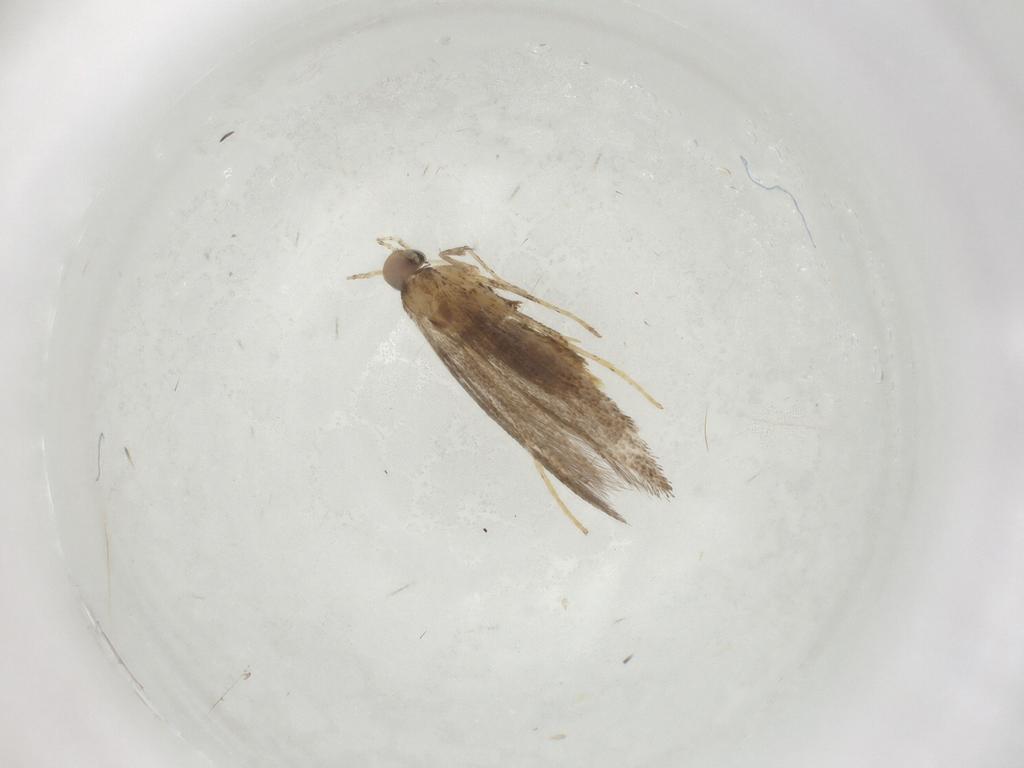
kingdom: Animalia
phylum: Arthropoda
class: Insecta
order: Lepidoptera
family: Gracillariidae
